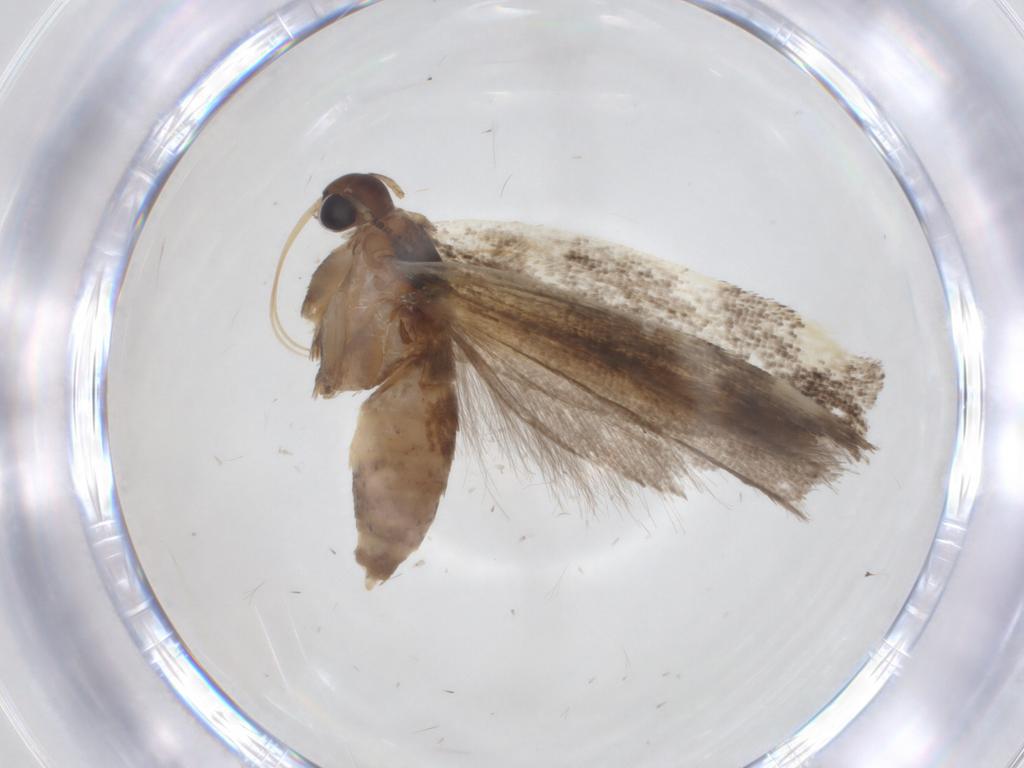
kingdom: Animalia
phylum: Arthropoda
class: Insecta
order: Lepidoptera
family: Gelechiidae
